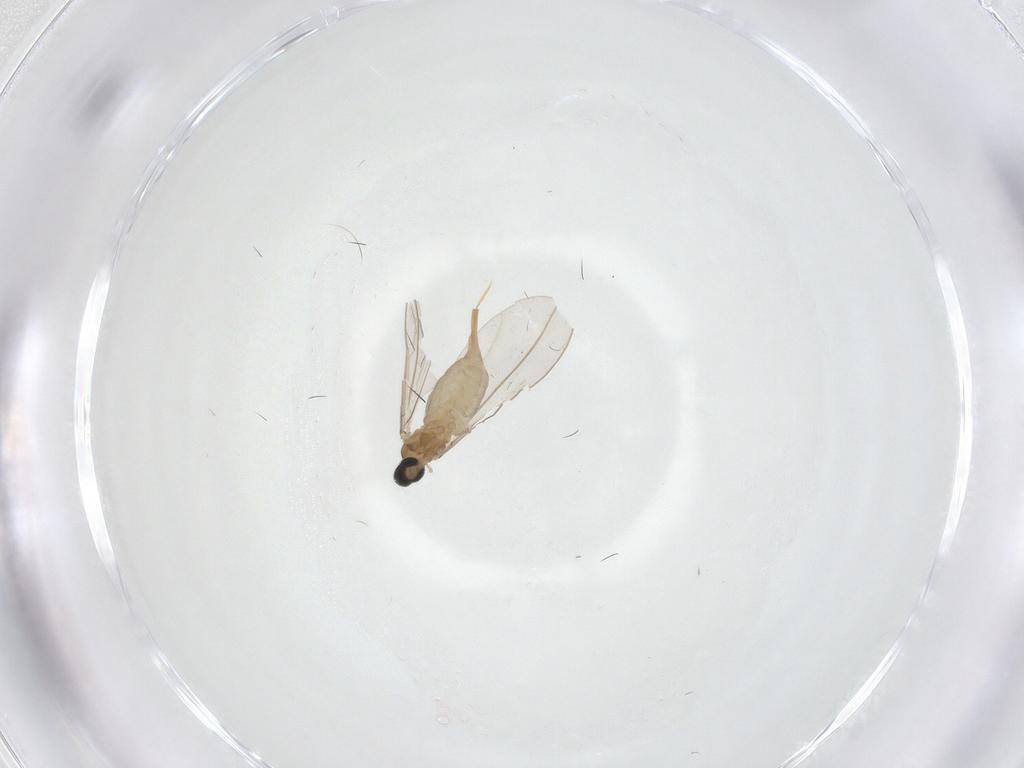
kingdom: Animalia
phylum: Arthropoda
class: Insecta
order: Diptera
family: Cecidomyiidae
